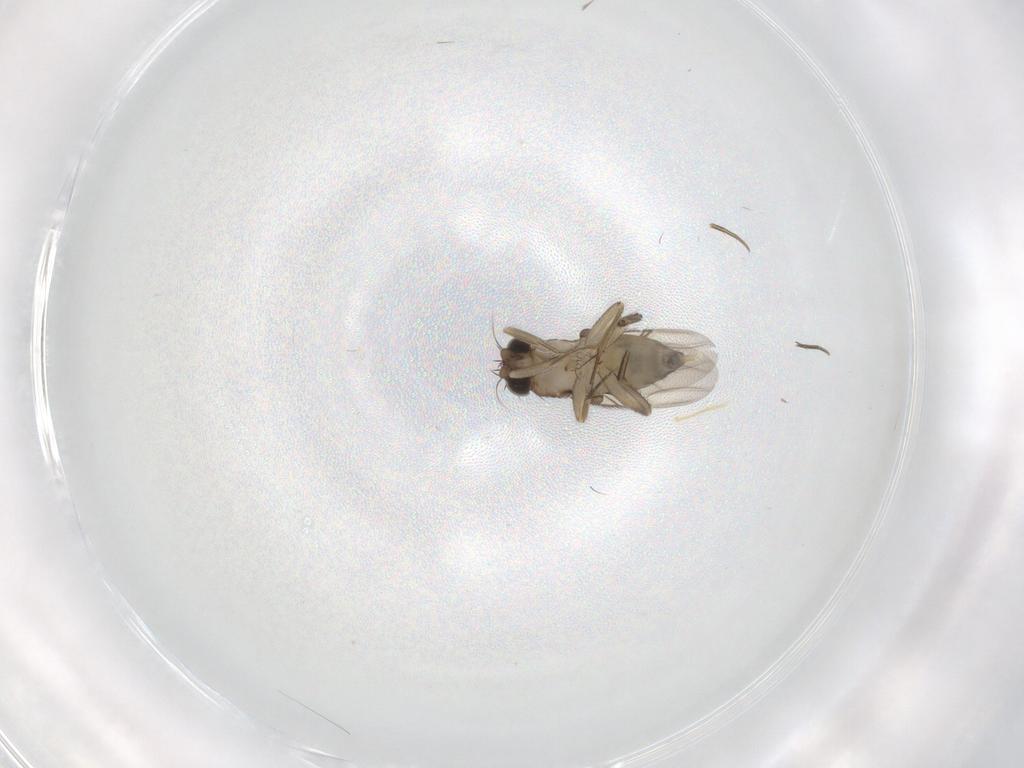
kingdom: Animalia
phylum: Arthropoda
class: Insecta
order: Diptera
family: Phoridae
